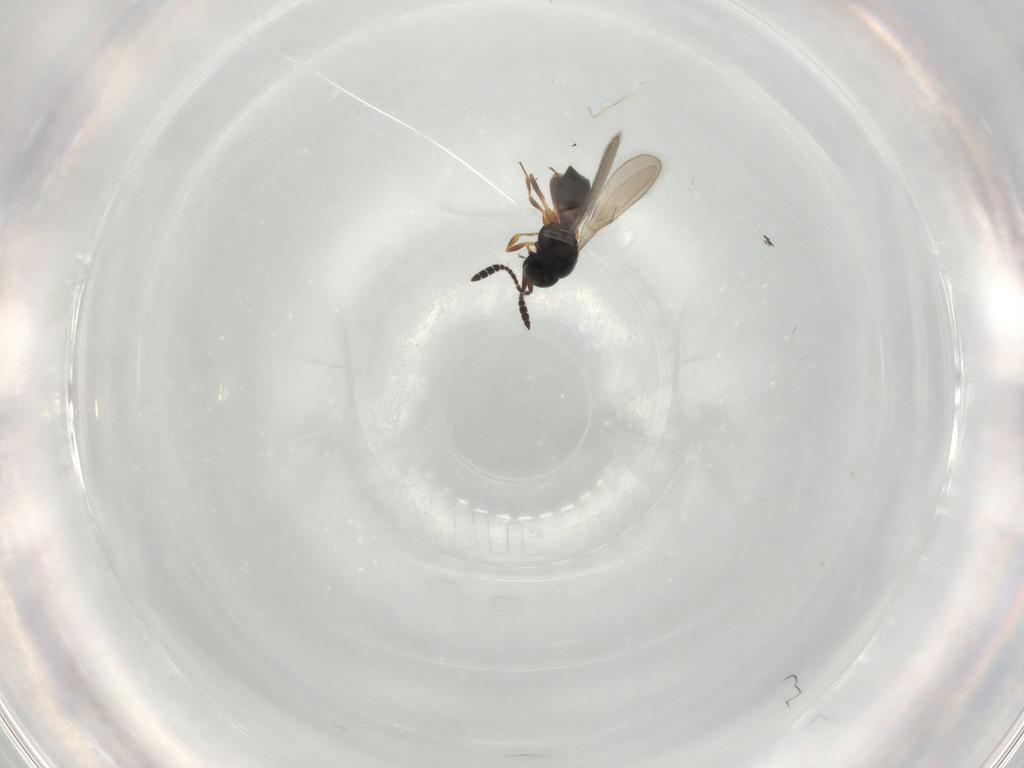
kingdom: Animalia
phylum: Arthropoda
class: Insecta
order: Hymenoptera
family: Scelionidae
